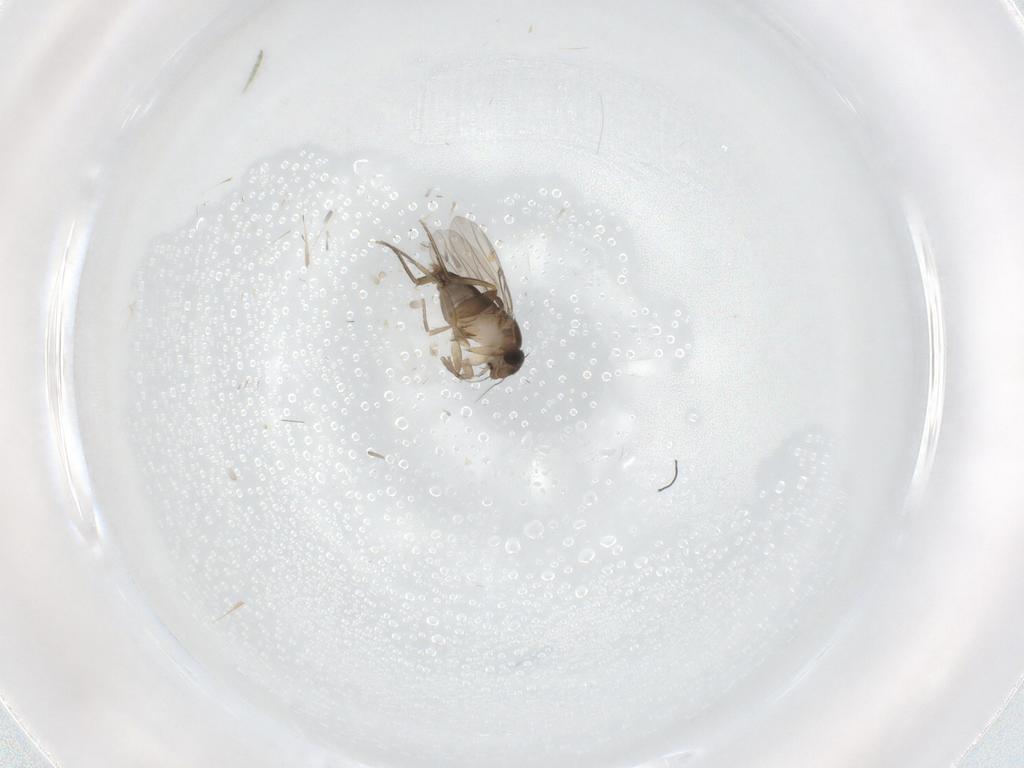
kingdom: Animalia
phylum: Arthropoda
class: Insecta
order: Diptera
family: Phoridae
